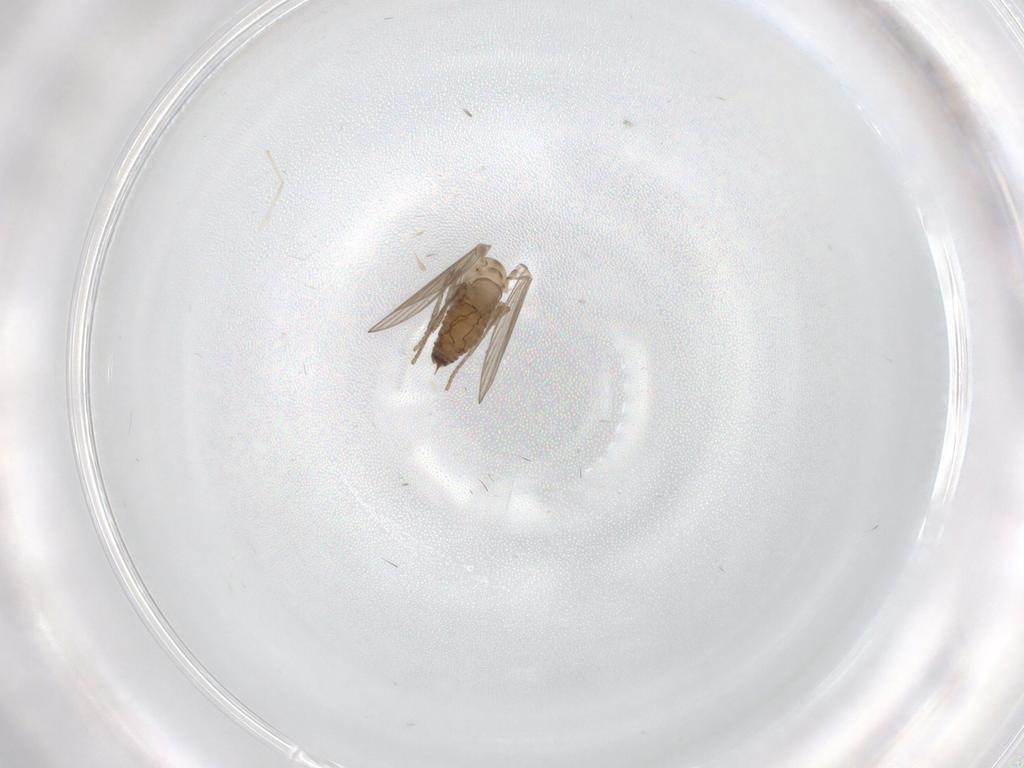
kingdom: Animalia
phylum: Arthropoda
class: Insecta
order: Diptera
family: Psychodidae
